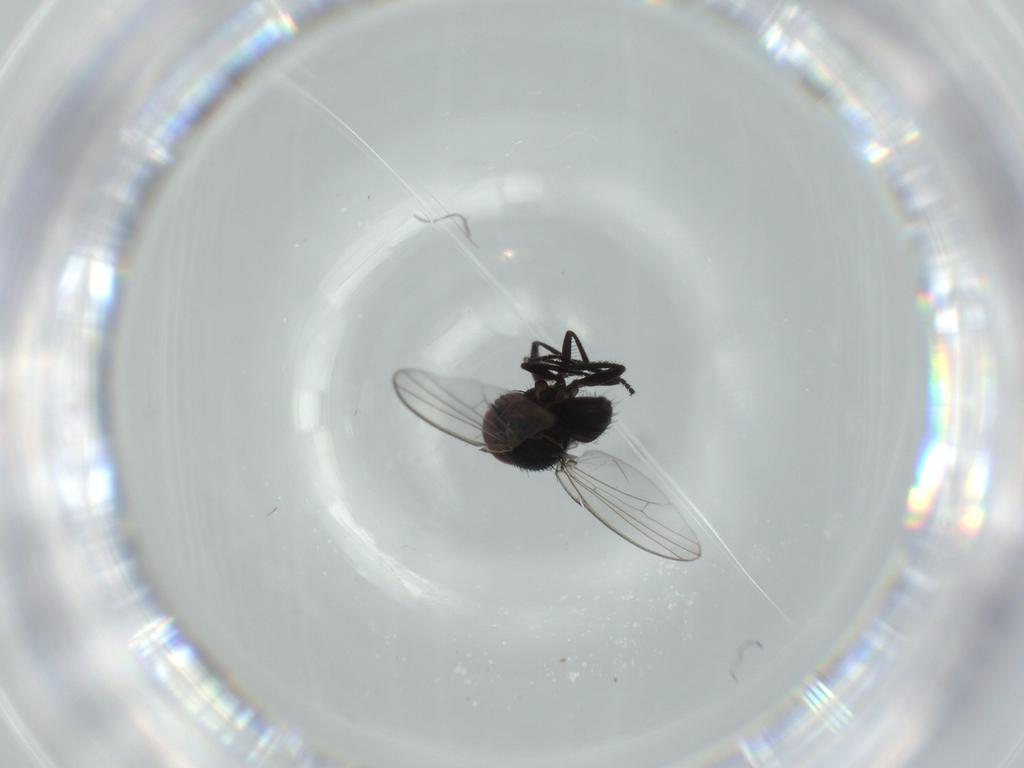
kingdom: Animalia
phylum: Arthropoda
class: Insecta
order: Diptera
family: Milichiidae
